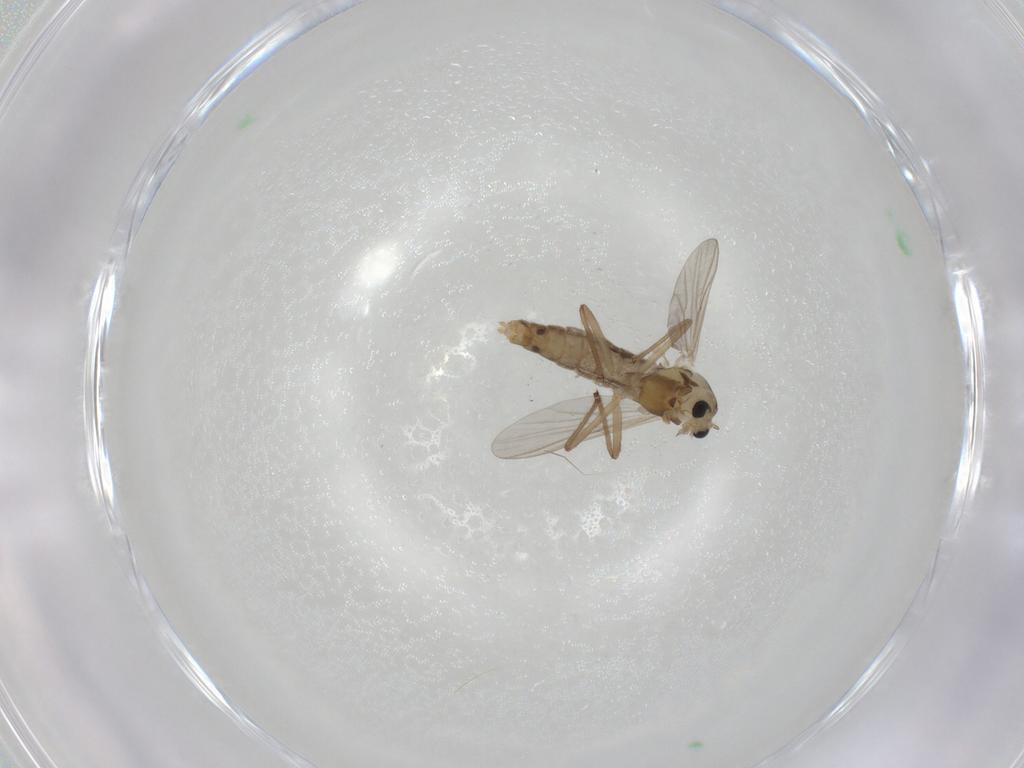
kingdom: Animalia
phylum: Arthropoda
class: Insecta
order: Diptera
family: Chironomidae
